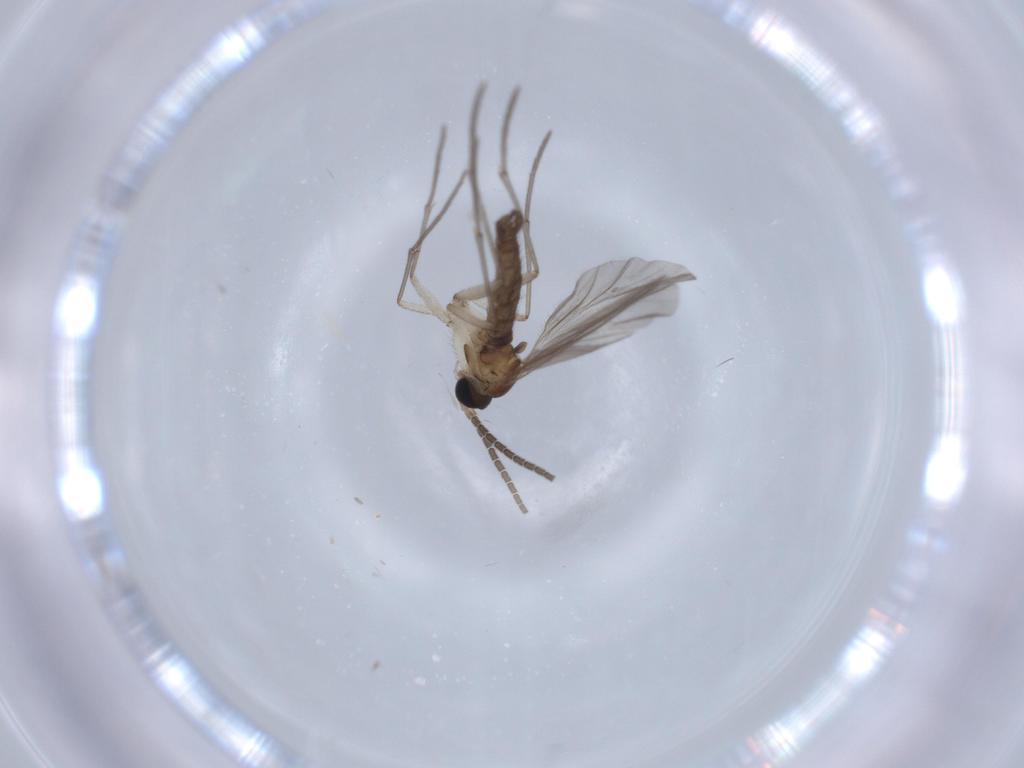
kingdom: Animalia
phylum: Arthropoda
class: Insecta
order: Diptera
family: Sciaridae
